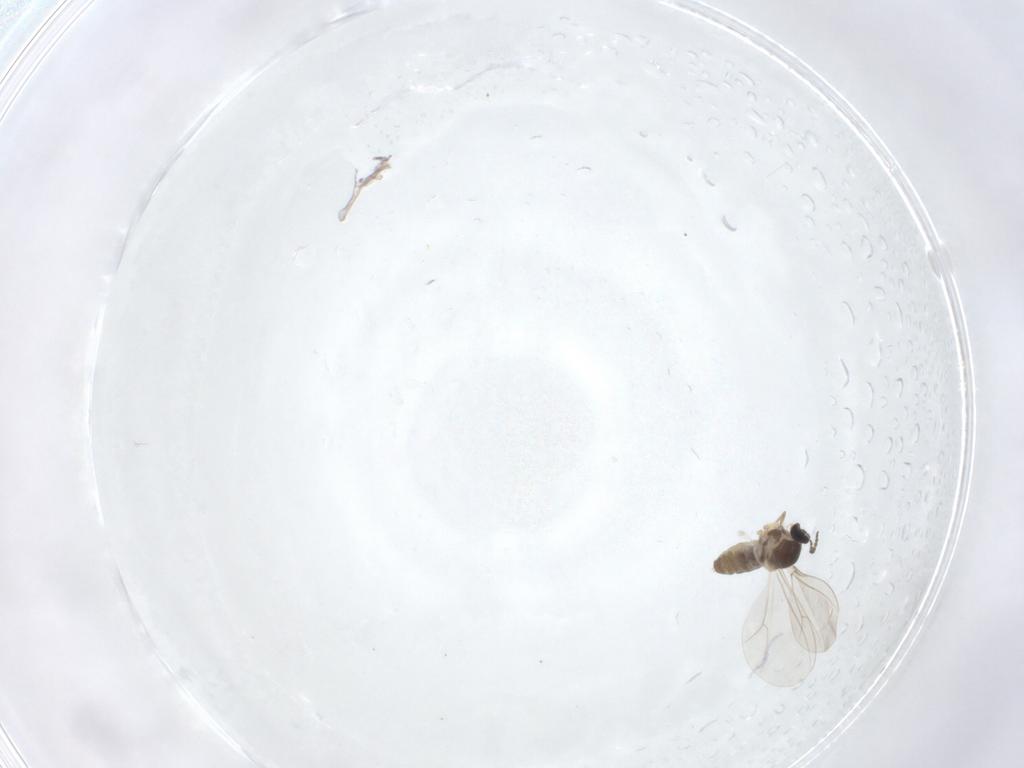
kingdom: Animalia
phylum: Arthropoda
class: Insecta
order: Diptera
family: Cecidomyiidae
